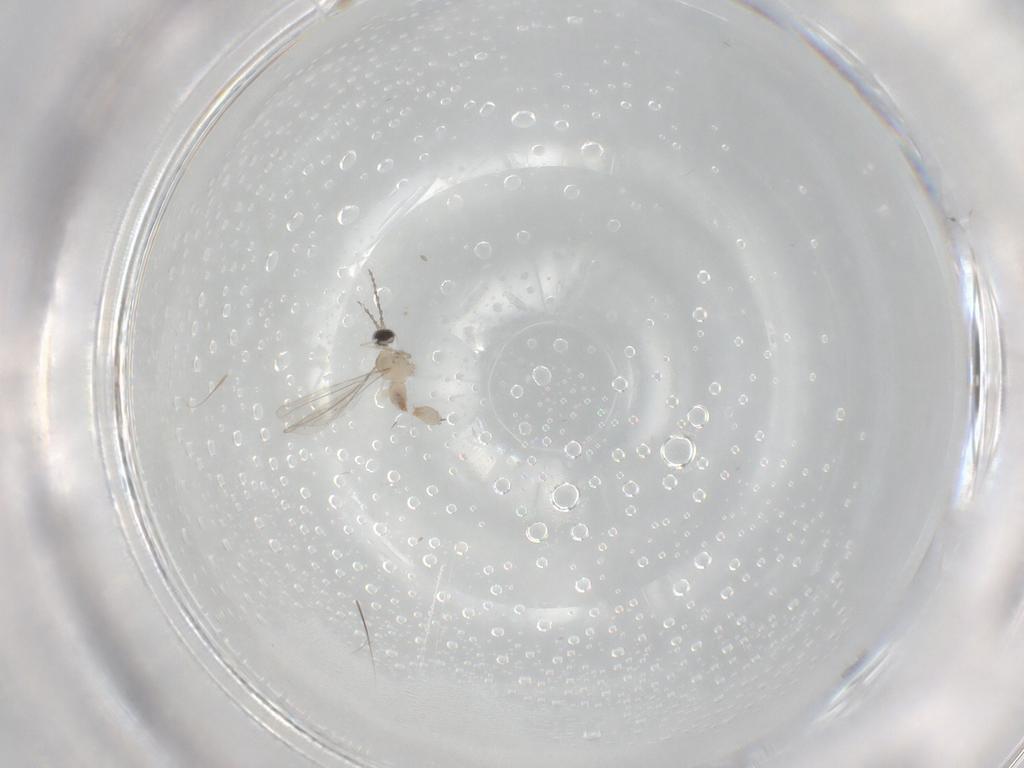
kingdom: Animalia
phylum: Arthropoda
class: Insecta
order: Diptera
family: Cecidomyiidae
